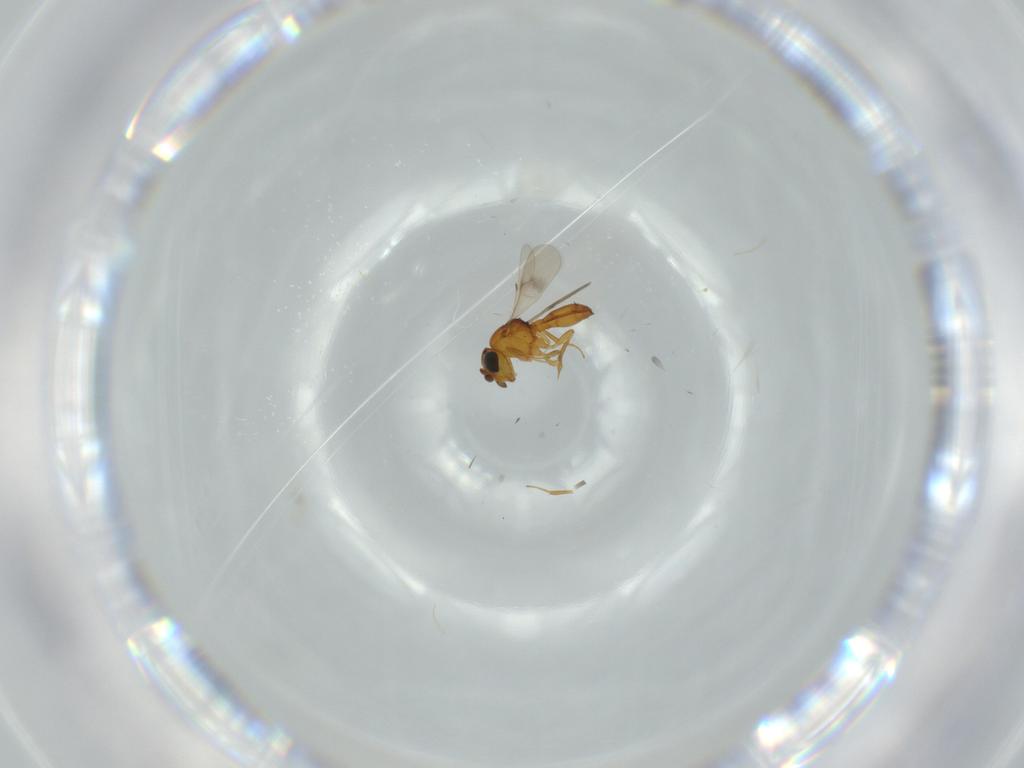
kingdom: Animalia
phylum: Arthropoda
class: Insecta
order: Hymenoptera
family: Scelionidae
